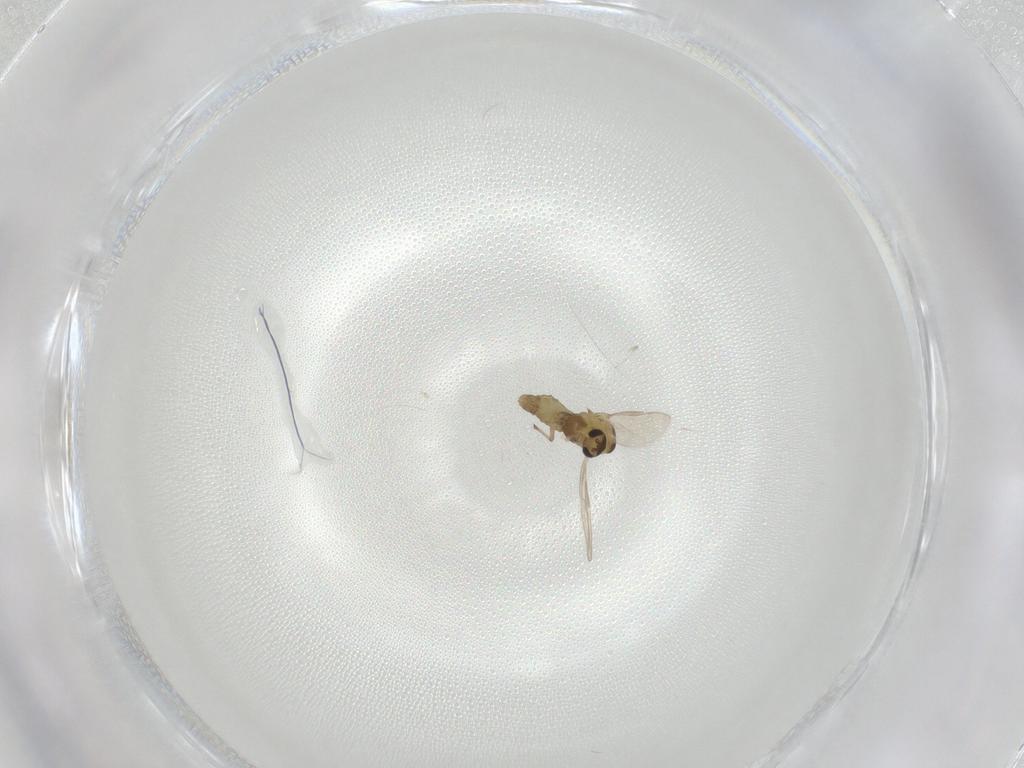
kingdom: Animalia
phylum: Arthropoda
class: Insecta
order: Diptera
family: Chironomidae
